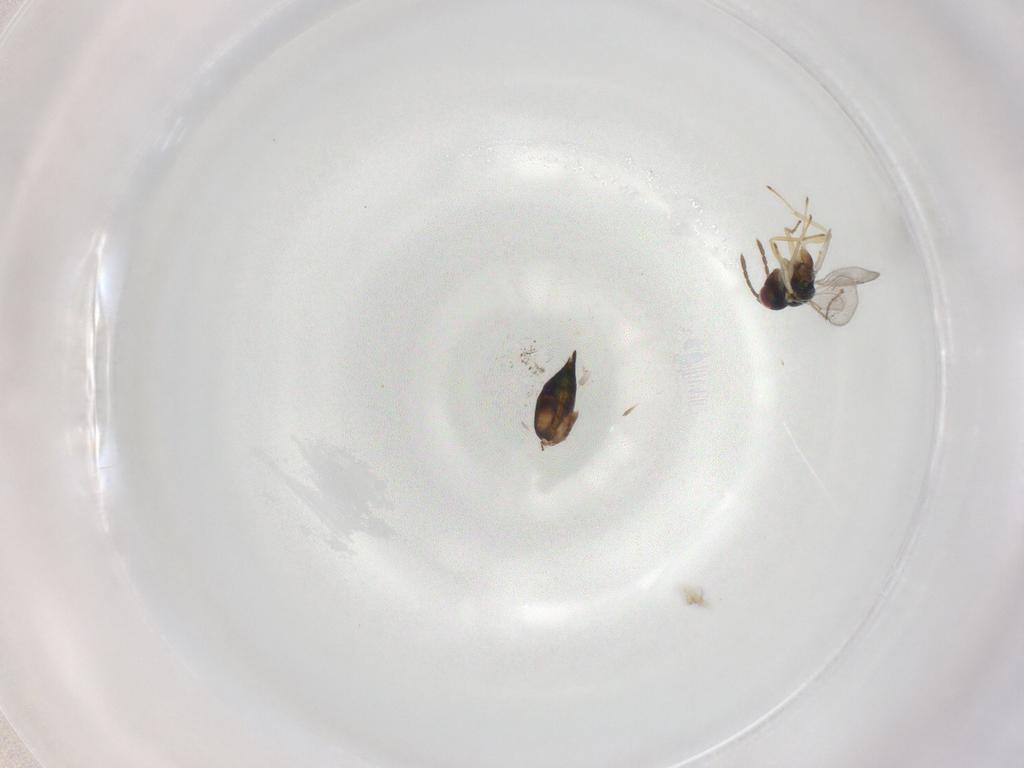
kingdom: Animalia
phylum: Arthropoda
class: Insecta
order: Hymenoptera
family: Eulophidae
